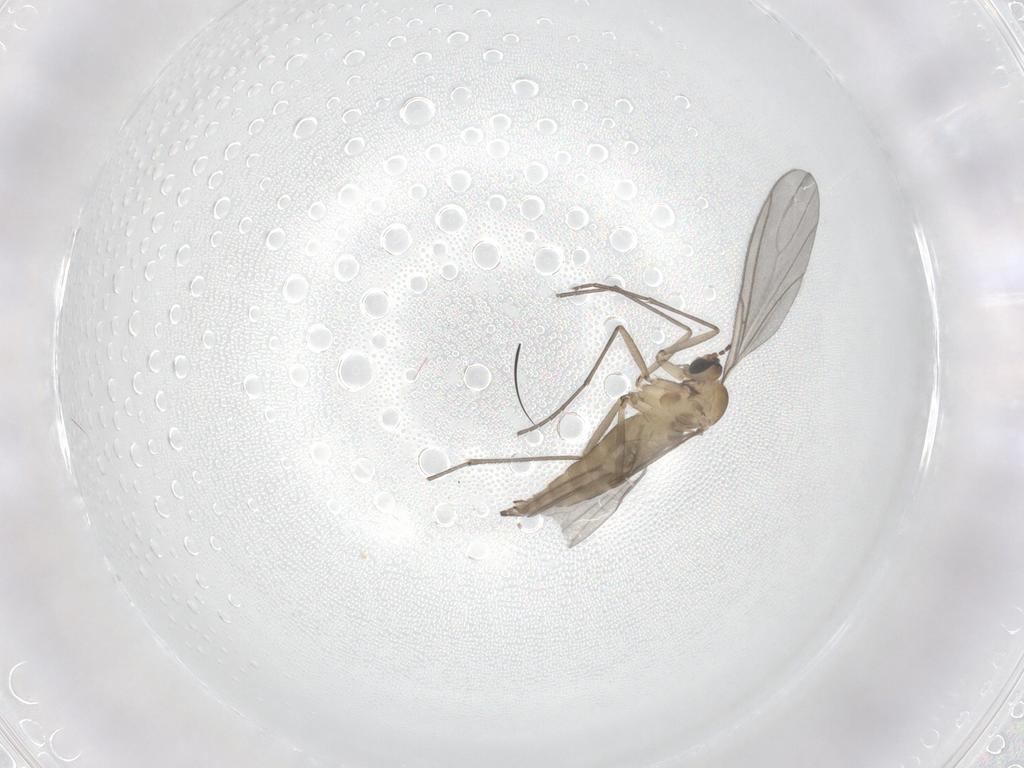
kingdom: Animalia
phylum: Arthropoda
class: Insecta
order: Diptera
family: Sciaridae
